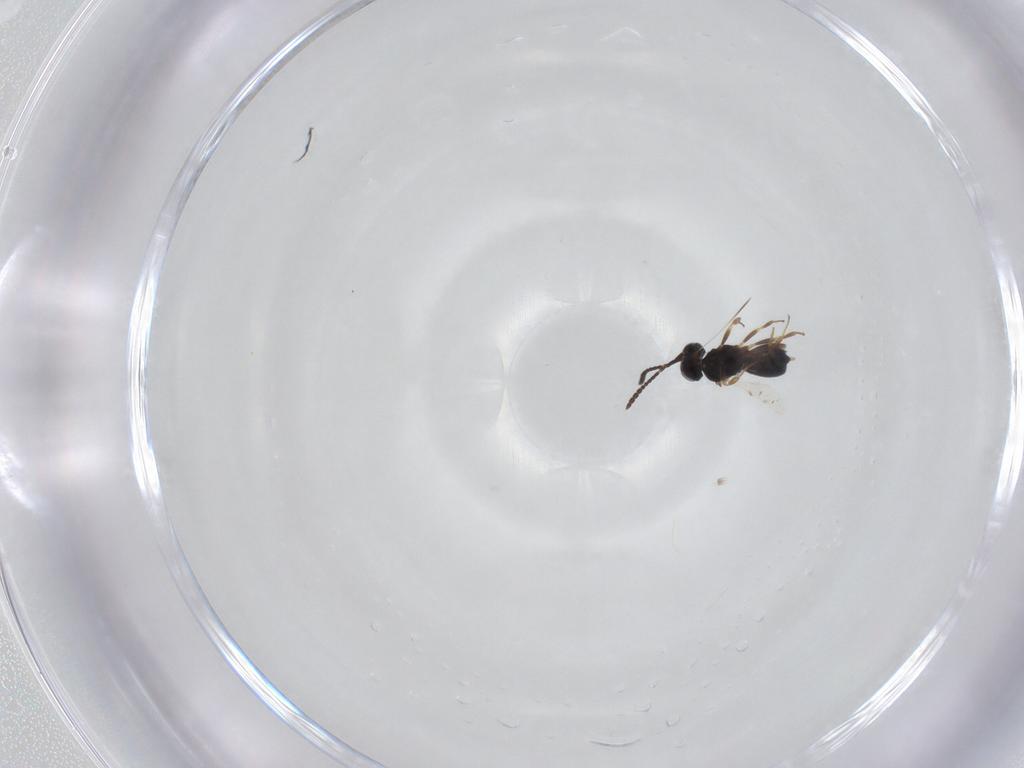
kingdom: Animalia
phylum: Arthropoda
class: Insecta
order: Hymenoptera
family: Scelionidae
